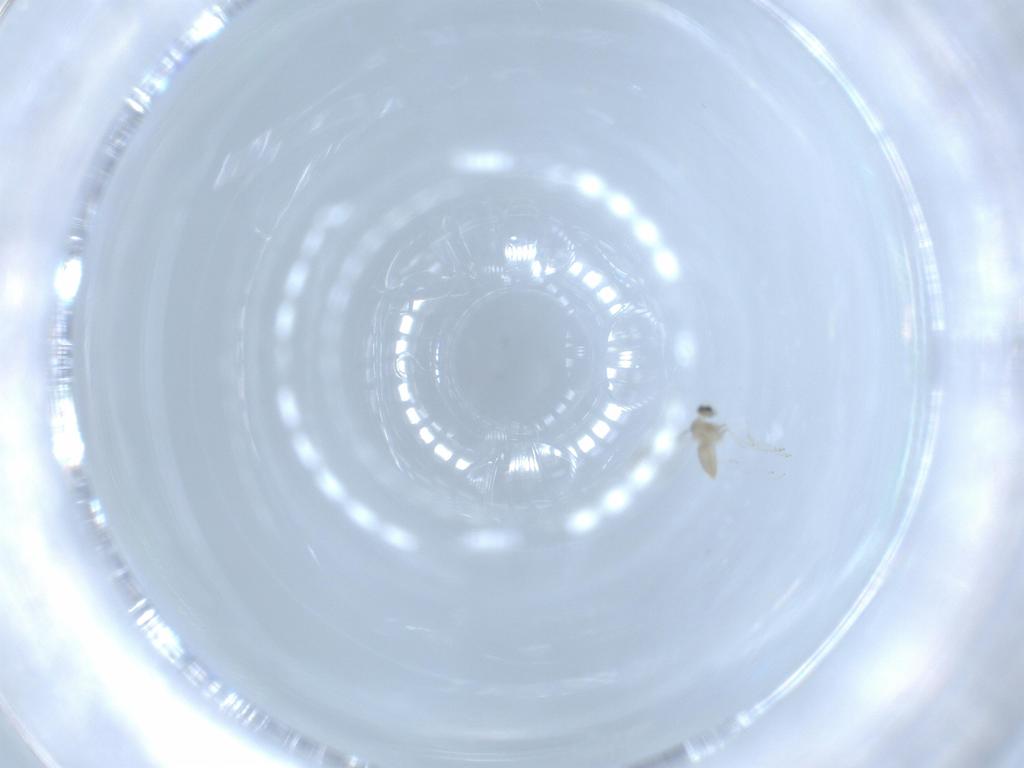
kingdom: Animalia
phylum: Arthropoda
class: Insecta
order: Diptera
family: Cecidomyiidae
